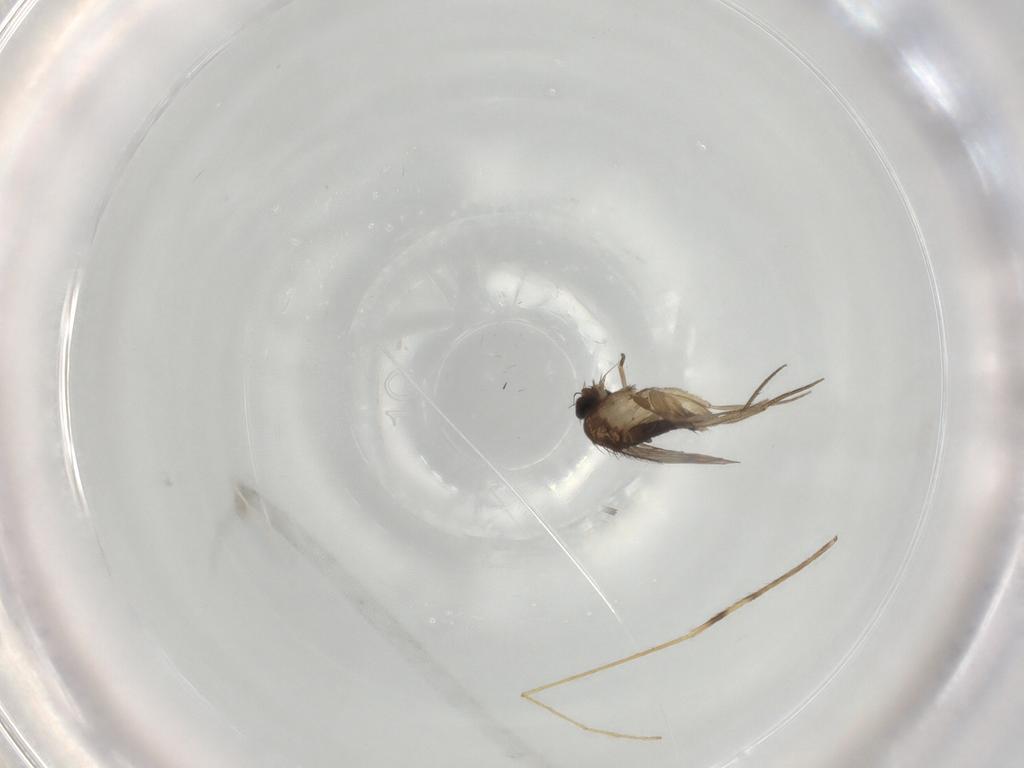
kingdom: Animalia
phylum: Arthropoda
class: Insecta
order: Diptera
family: Phoridae
